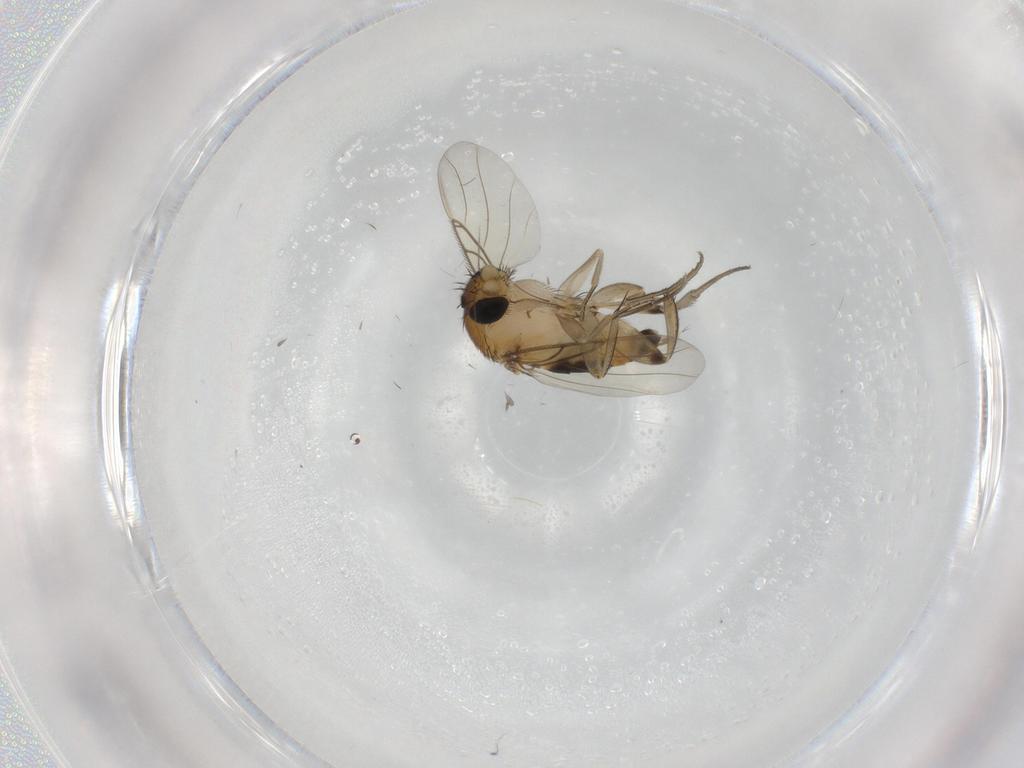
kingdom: Animalia
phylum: Arthropoda
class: Insecta
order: Diptera
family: Phoridae
